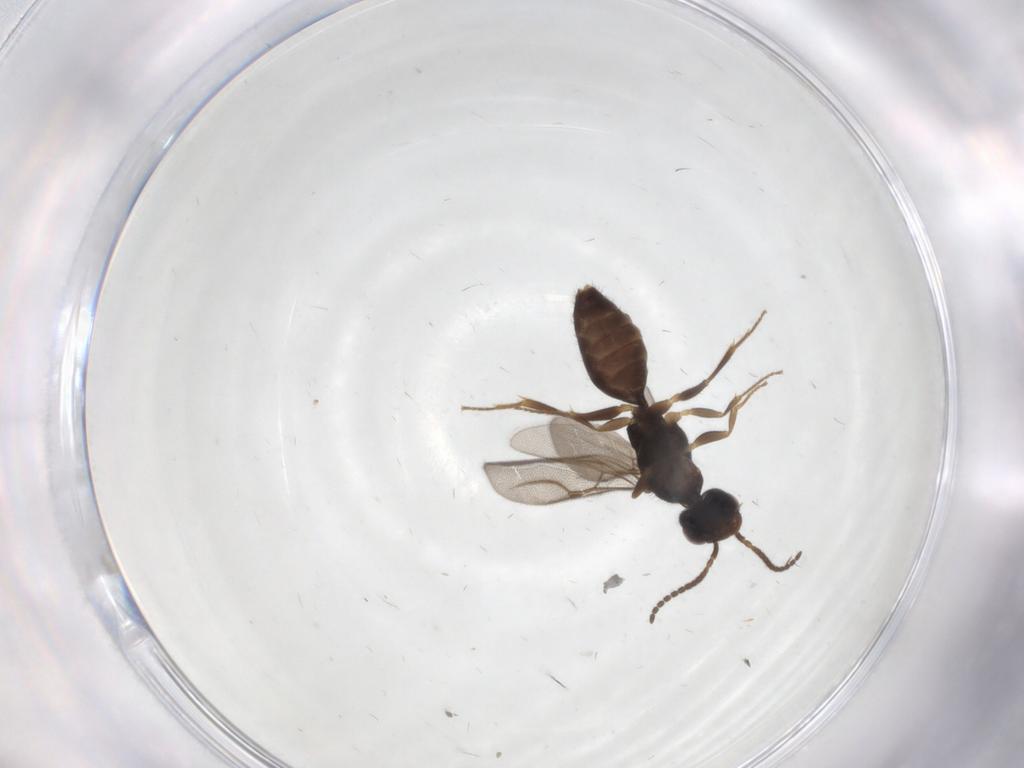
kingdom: Animalia
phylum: Arthropoda
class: Insecta
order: Hymenoptera
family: Bethylidae
